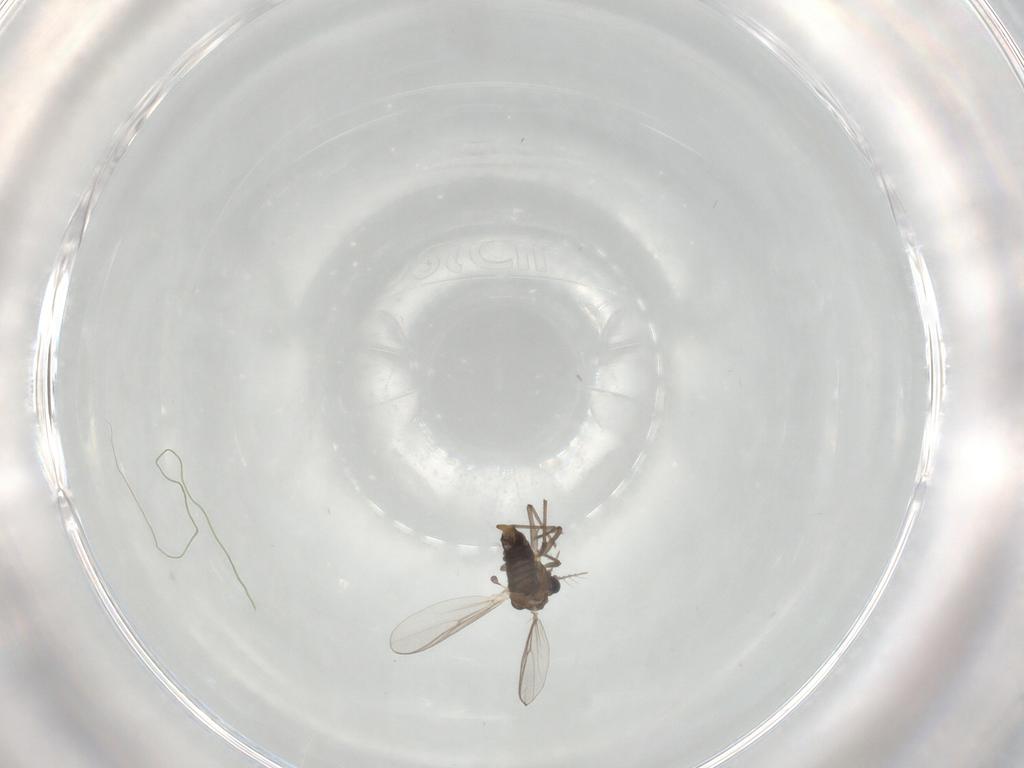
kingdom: Animalia
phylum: Arthropoda
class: Insecta
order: Diptera
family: Chironomidae
